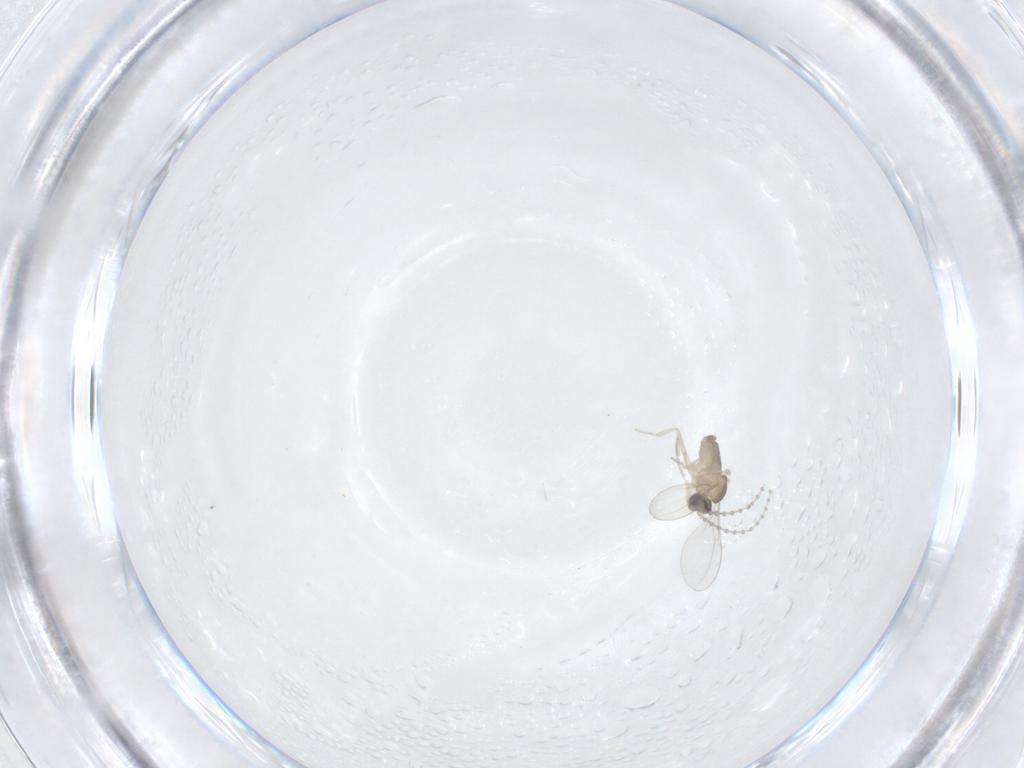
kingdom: Animalia
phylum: Arthropoda
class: Insecta
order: Diptera
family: Cecidomyiidae
